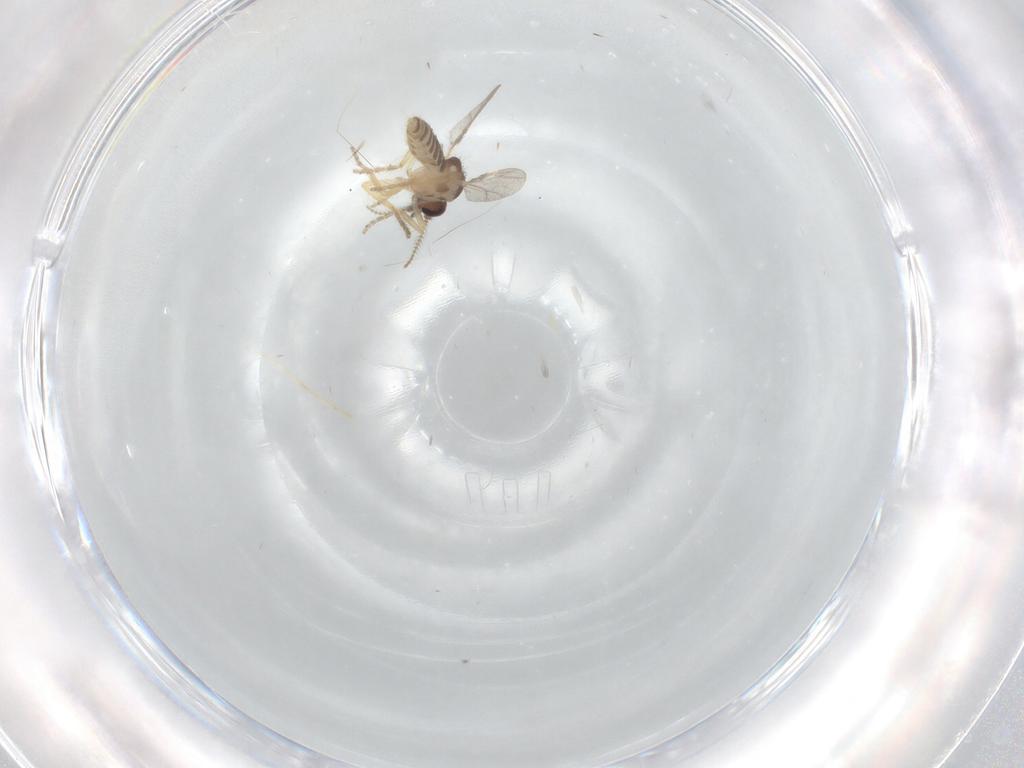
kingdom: Animalia
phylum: Arthropoda
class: Insecta
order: Diptera
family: Ceratopogonidae
